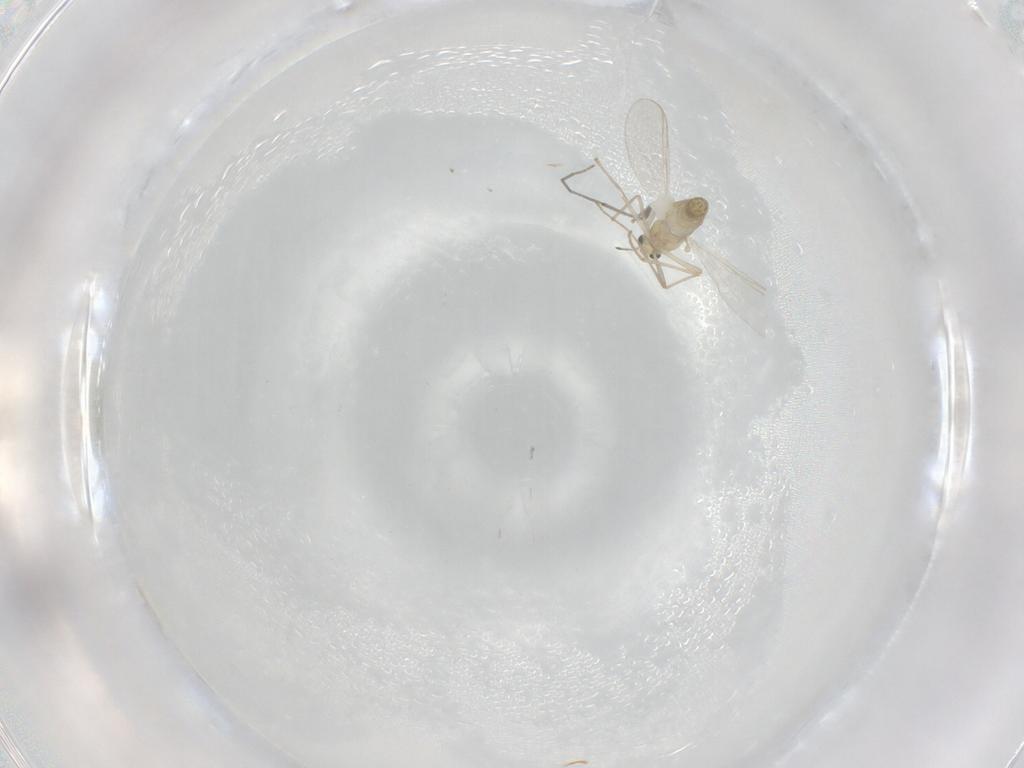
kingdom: Animalia
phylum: Arthropoda
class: Insecta
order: Diptera
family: Chironomidae
